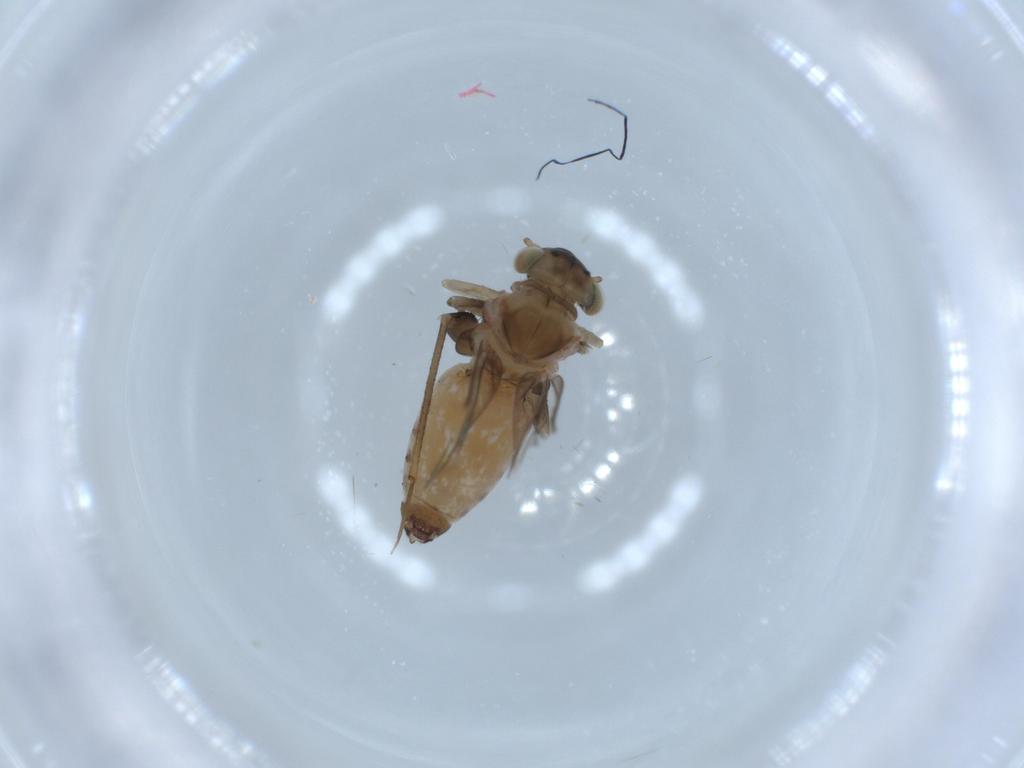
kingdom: Animalia
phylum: Arthropoda
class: Insecta
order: Psocodea
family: Lepidopsocidae
